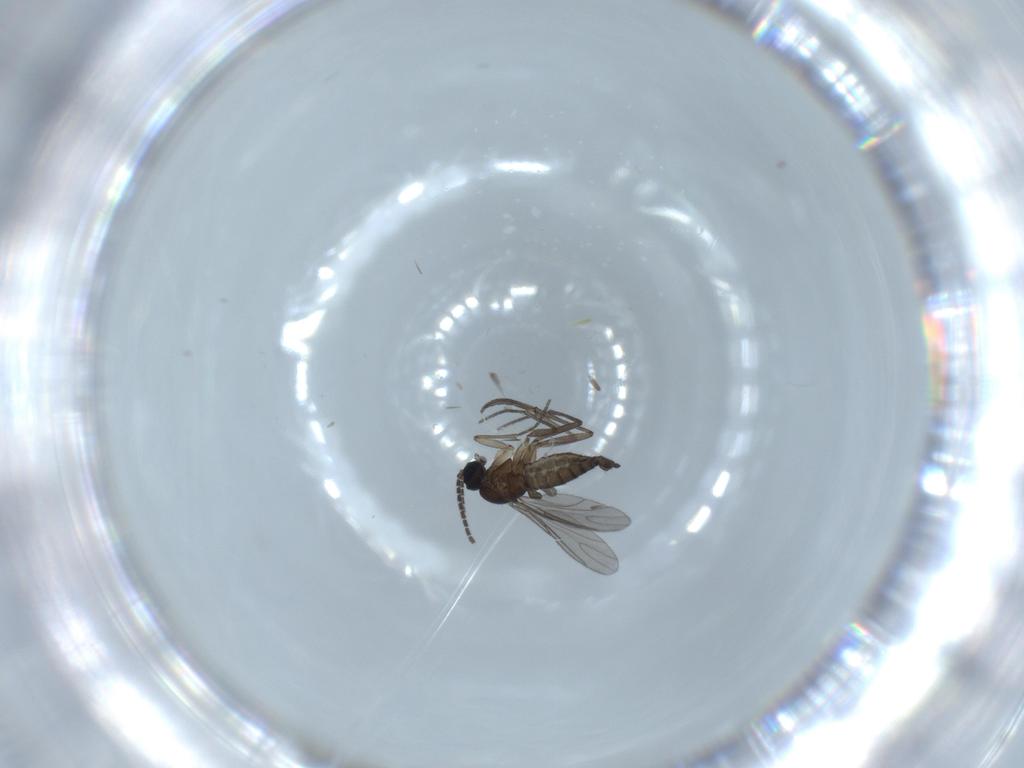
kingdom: Animalia
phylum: Arthropoda
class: Insecta
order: Diptera
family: Sciaridae
